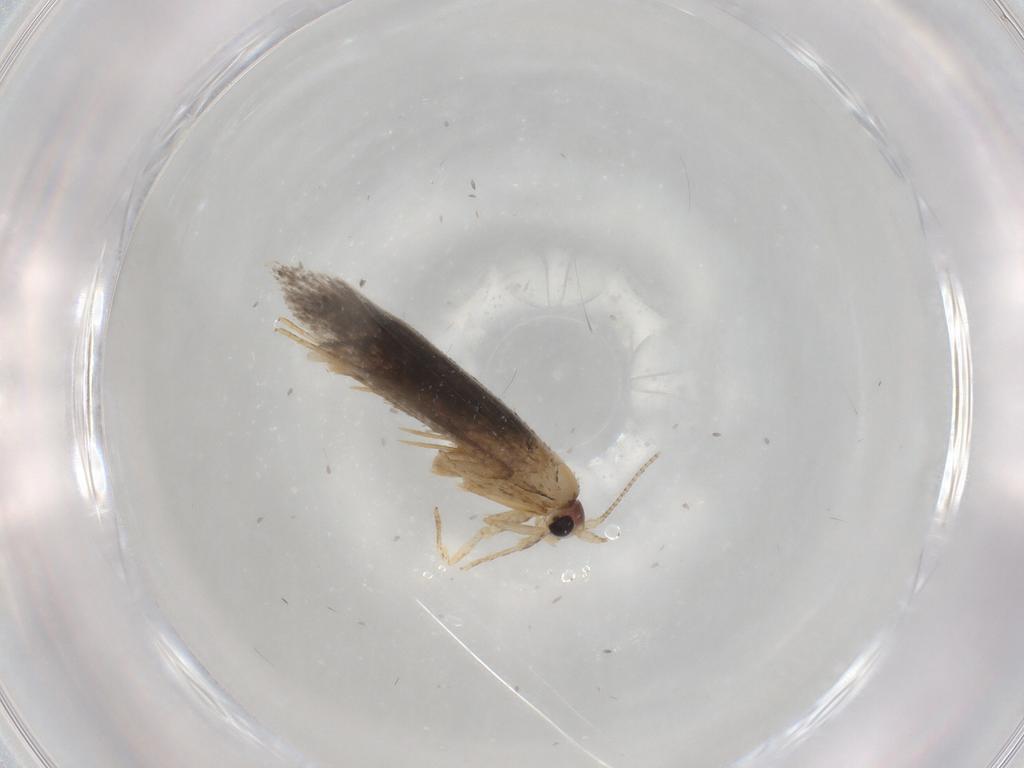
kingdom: Animalia
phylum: Arthropoda
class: Insecta
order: Lepidoptera
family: Nepticulidae
